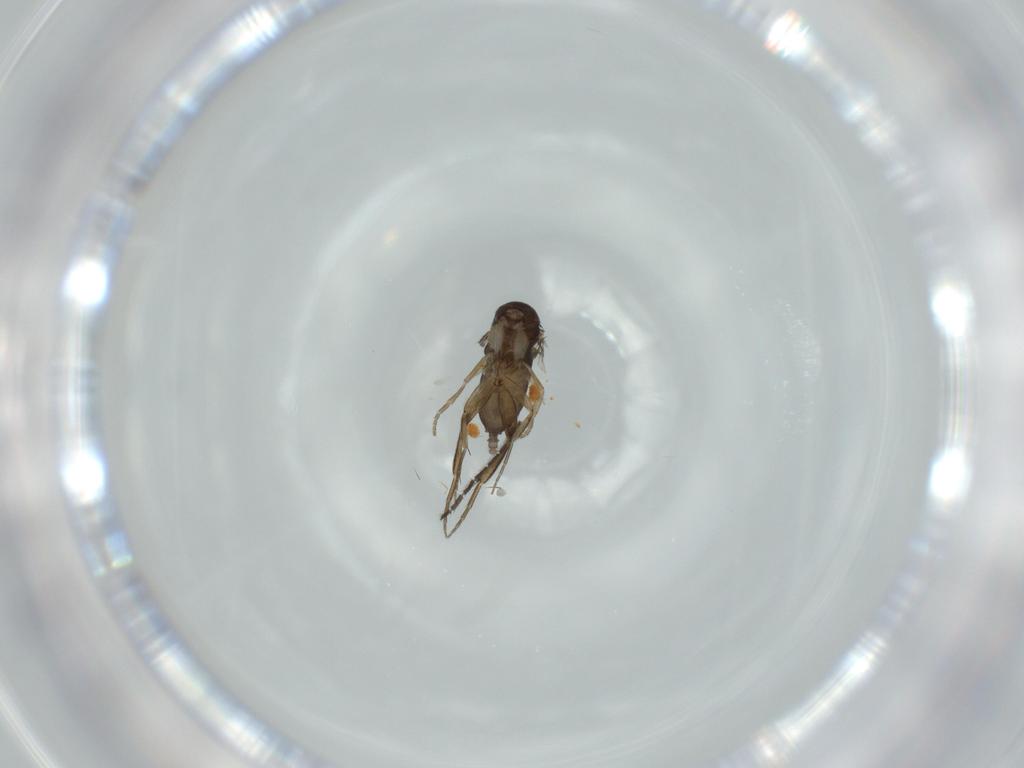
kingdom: Animalia
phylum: Arthropoda
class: Insecta
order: Diptera
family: Phoridae
